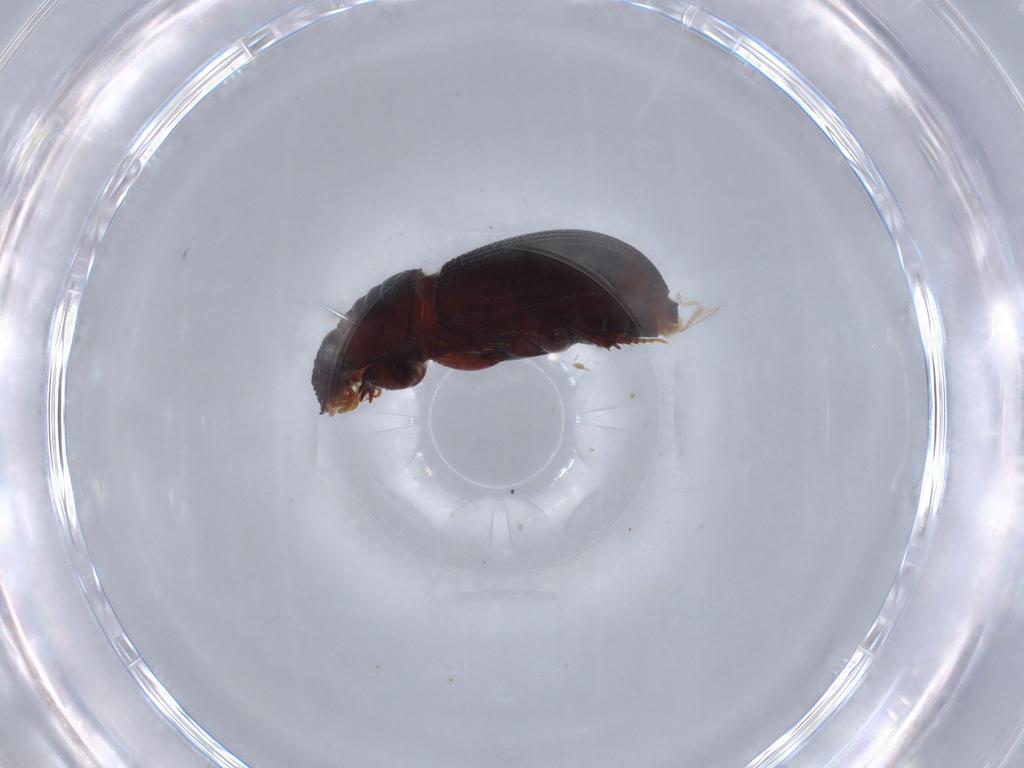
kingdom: Animalia
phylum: Arthropoda
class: Insecta
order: Coleoptera
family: Latridiidae
